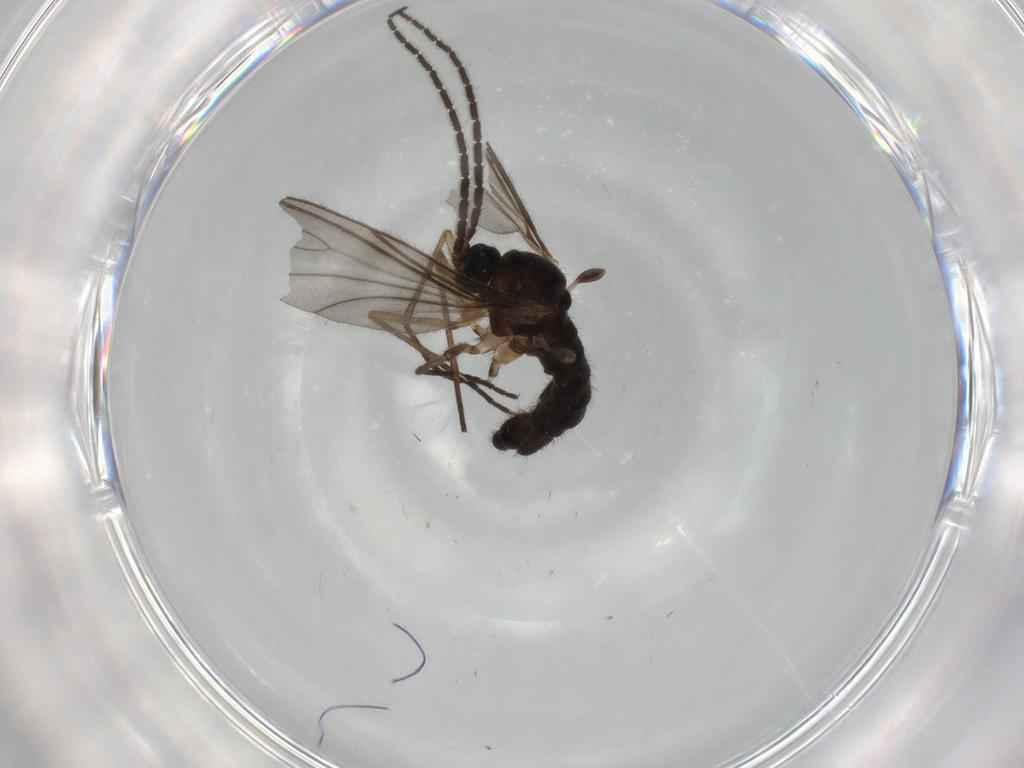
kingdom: Animalia
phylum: Arthropoda
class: Insecta
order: Diptera
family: Sciaridae
